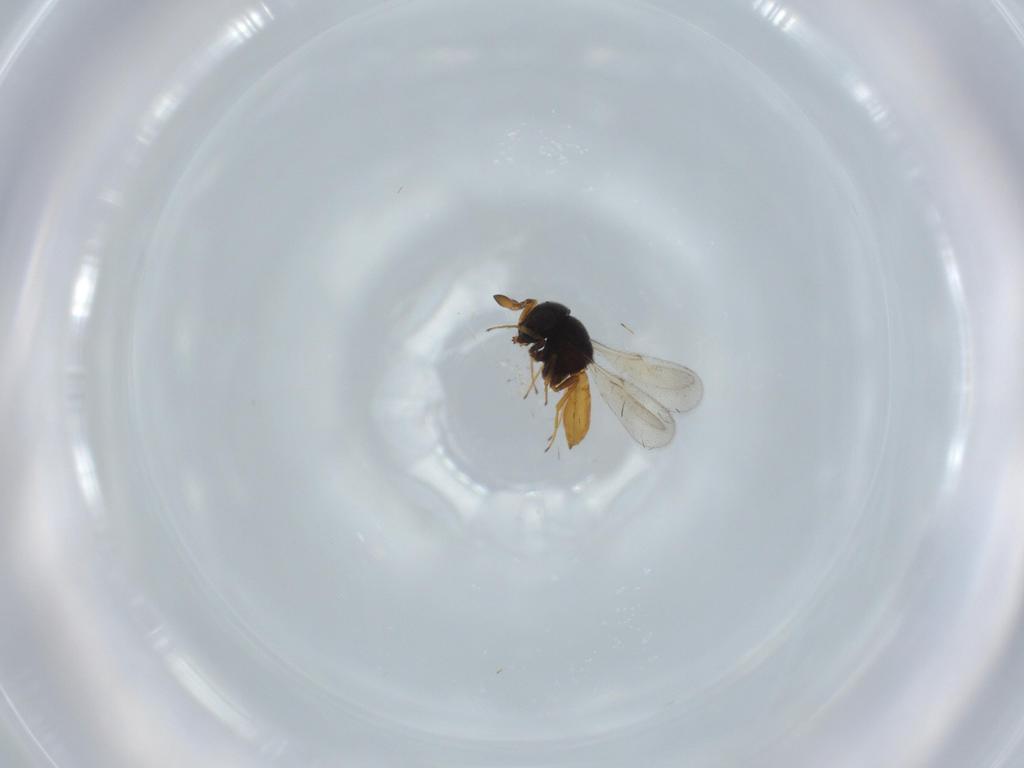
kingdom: Animalia
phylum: Arthropoda
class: Insecta
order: Hymenoptera
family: Scelionidae
